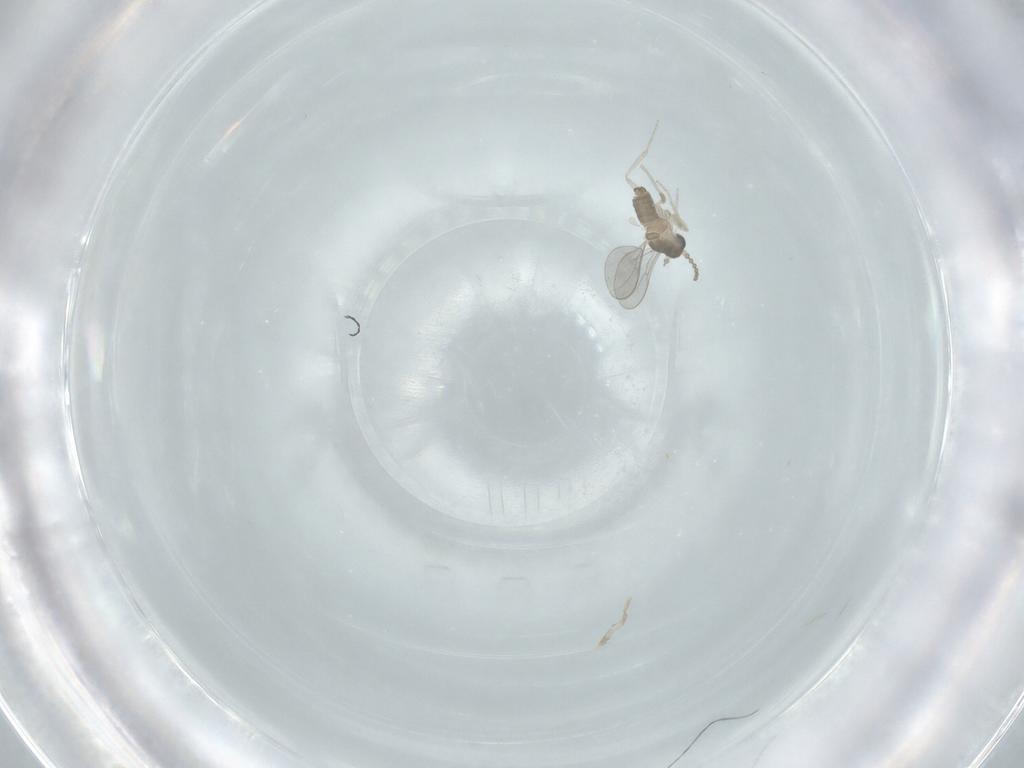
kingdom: Animalia
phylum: Arthropoda
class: Insecta
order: Diptera
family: Cecidomyiidae
